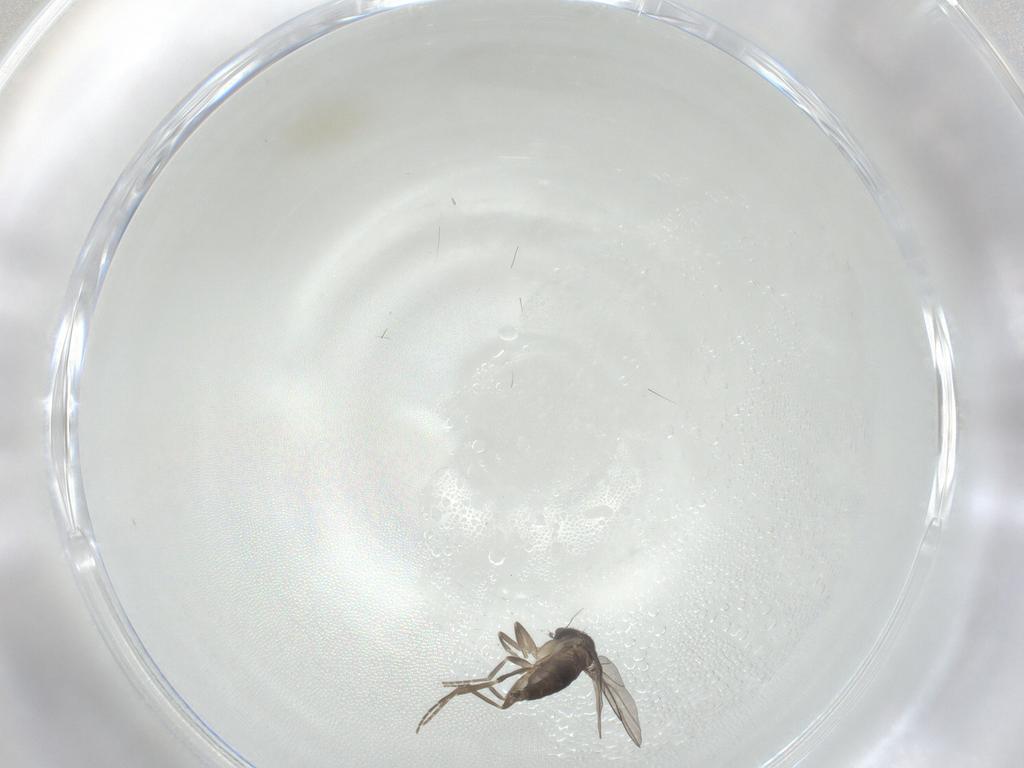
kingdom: Animalia
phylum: Arthropoda
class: Insecta
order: Diptera
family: Phoridae
